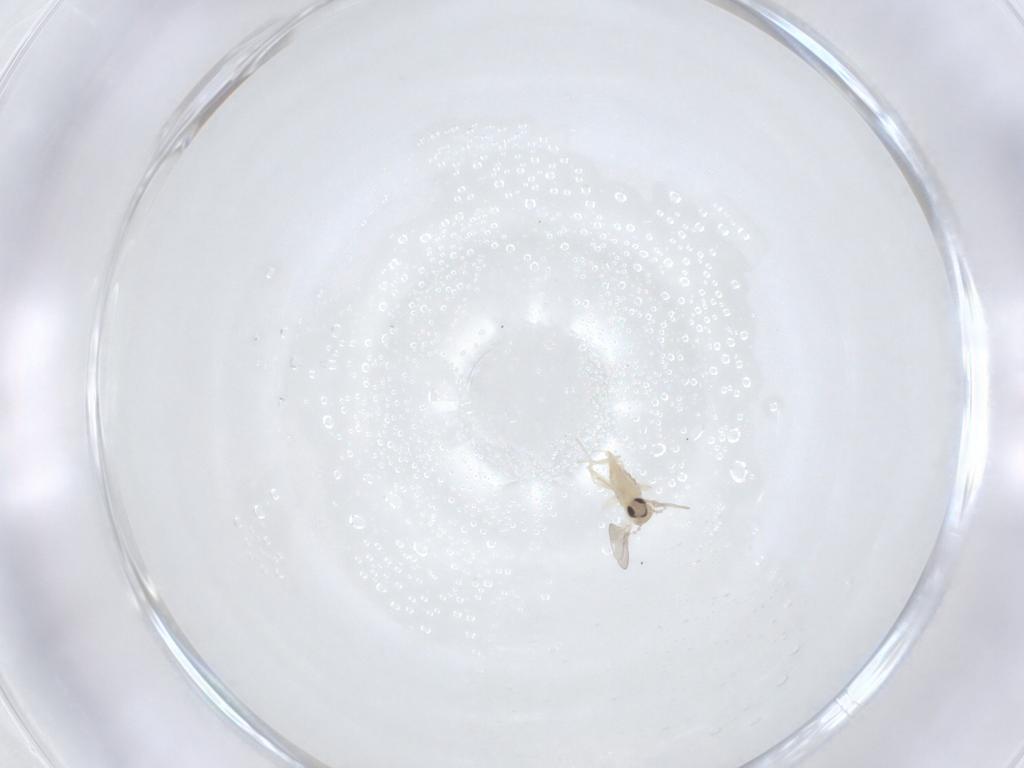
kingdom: Animalia
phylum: Arthropoda
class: Insecta
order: Diptera
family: Cecidomyiidae
